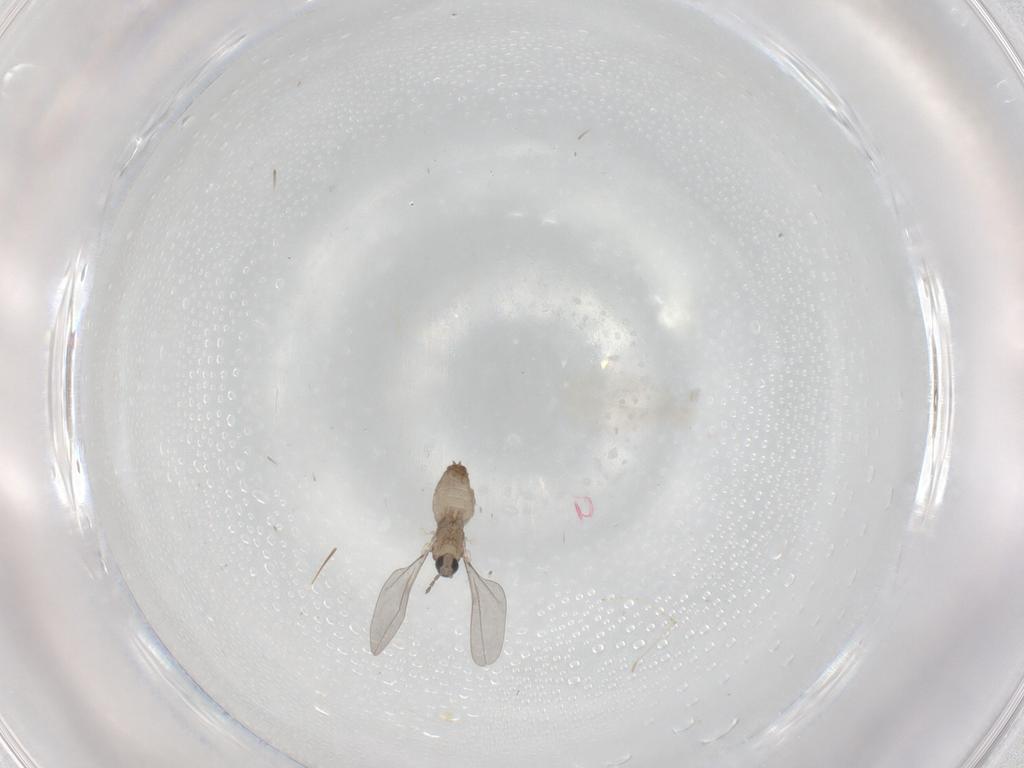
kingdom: Animalia
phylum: Arthropoda
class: Insecta
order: Diptera
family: Cecidomyiidae
